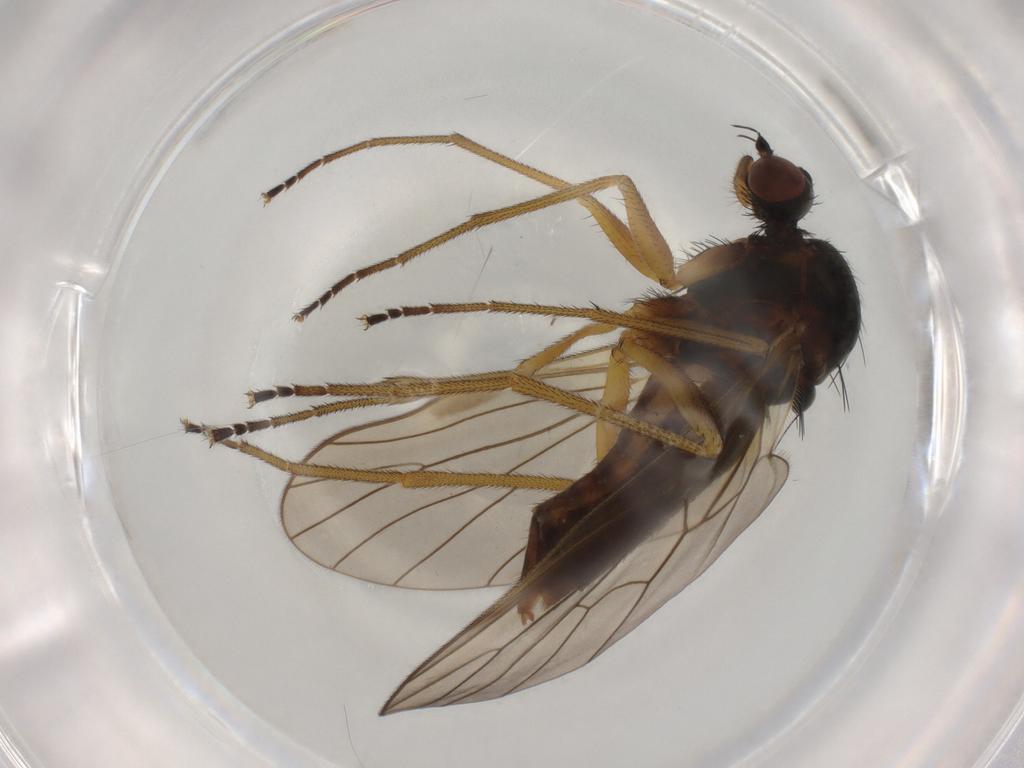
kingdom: Animalia
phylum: Arthropoda
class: Insecta
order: Diptera
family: Brachystomatidae
